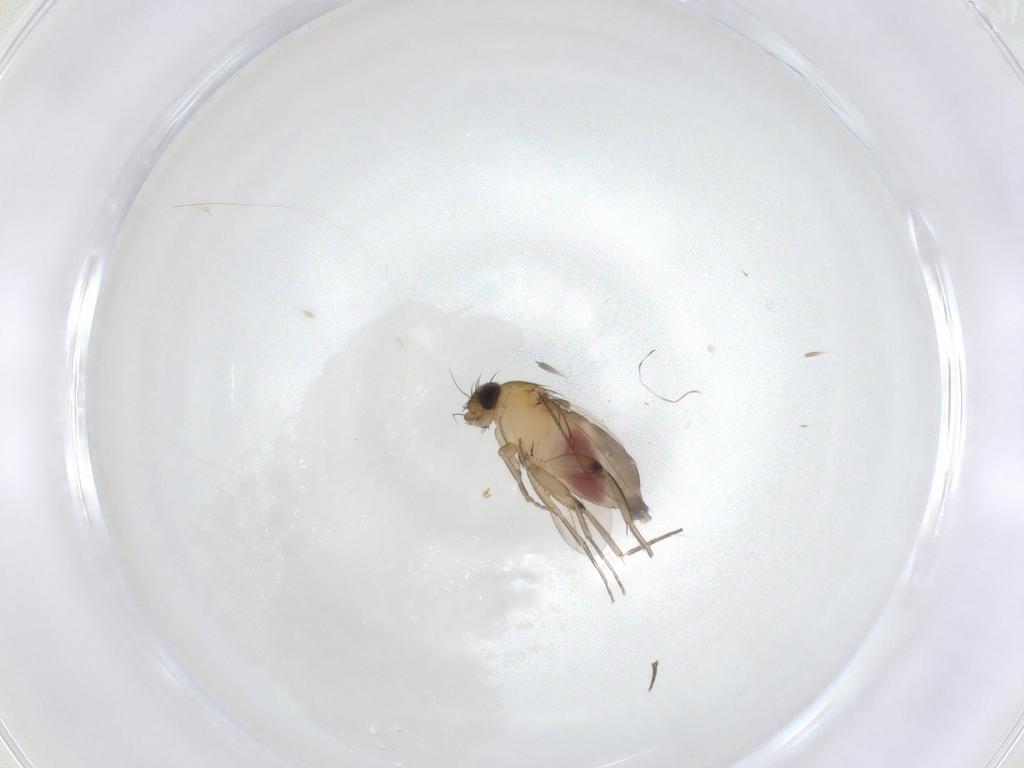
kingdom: Animalia
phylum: Arthropoda
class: Insecta
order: Diptera
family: Phoridae
